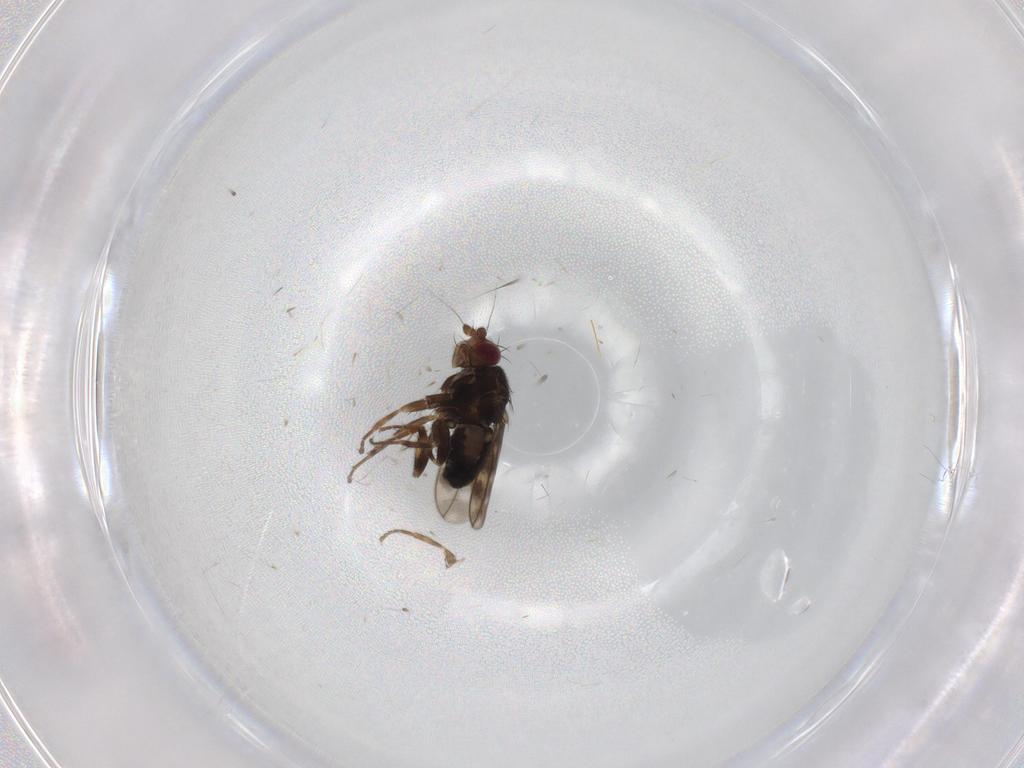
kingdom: Animalia
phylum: Arthropoda
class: Insecta
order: Diptera
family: Sphaeroceridae
